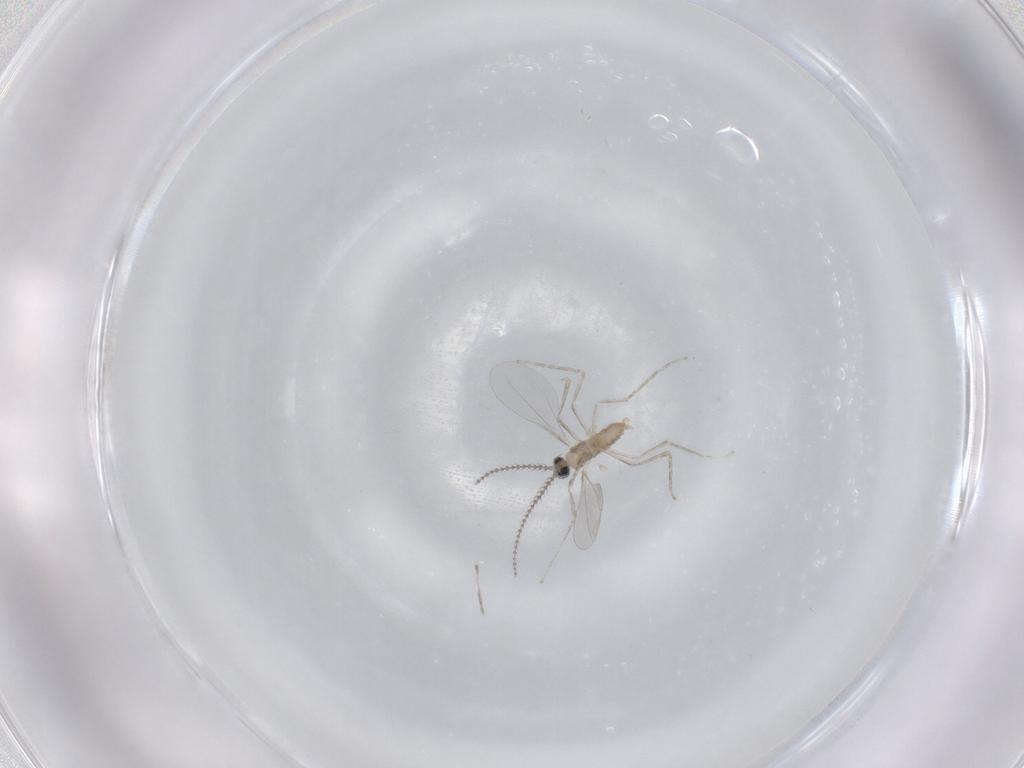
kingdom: Animalia
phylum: Arthropoda
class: Insecta
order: Diptera
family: Cecidomyiidae
